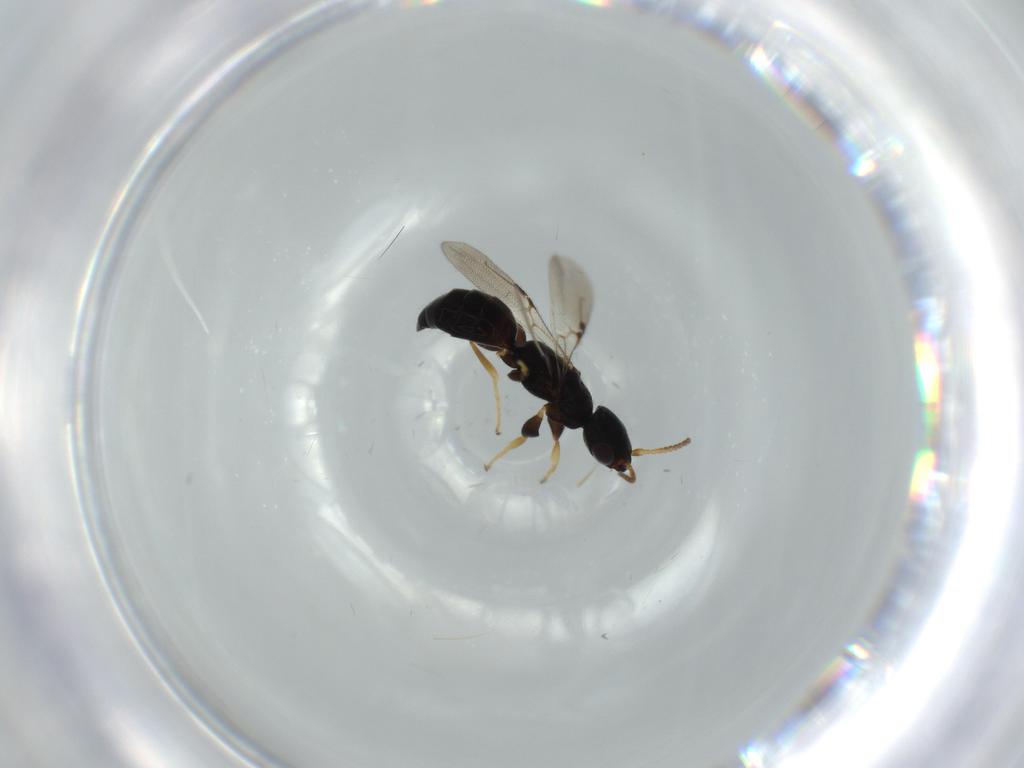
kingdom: Animalia
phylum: Arthropoda
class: Insecta
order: Hymenoptera
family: Bethylidae
